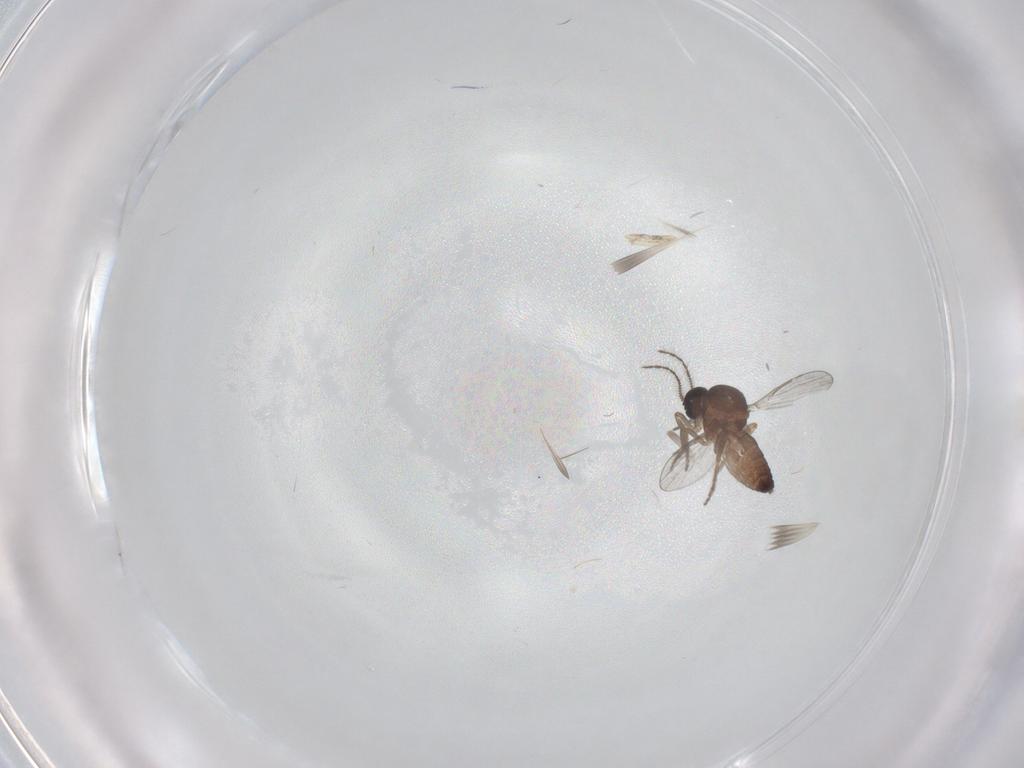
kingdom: Animalia
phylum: Arthropoda
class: Insecta
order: Diptera
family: Ceratopogonidae
